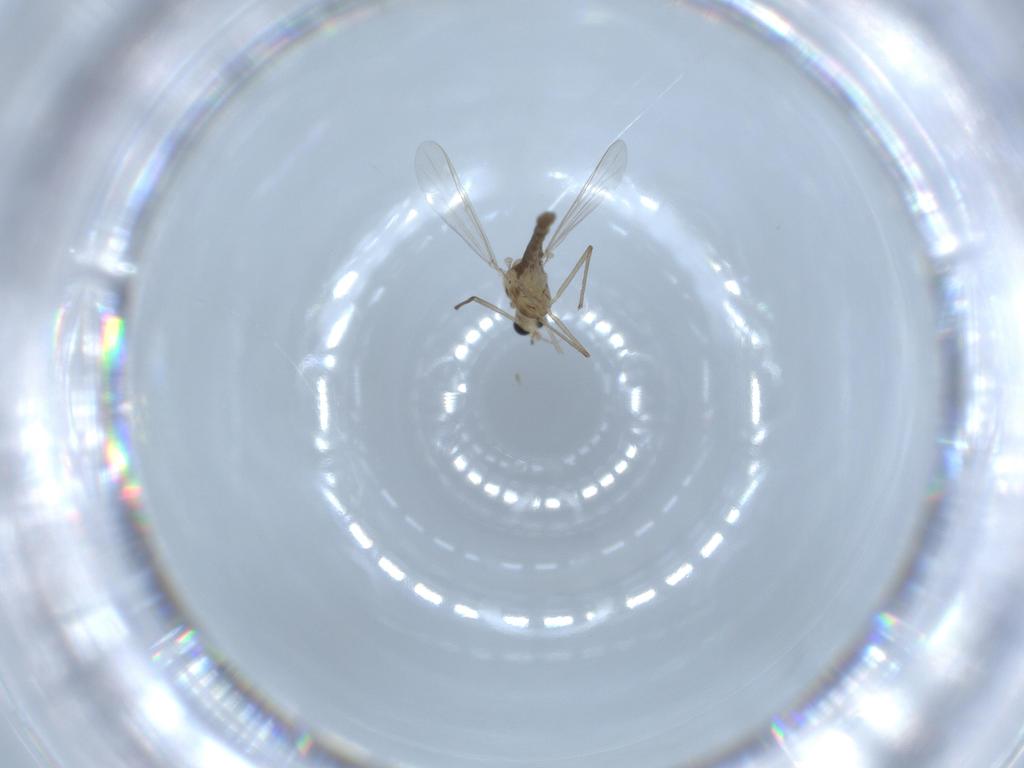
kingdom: Animalia
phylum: Arthropoda
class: Insecta
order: Diptera
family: Chironomidae
